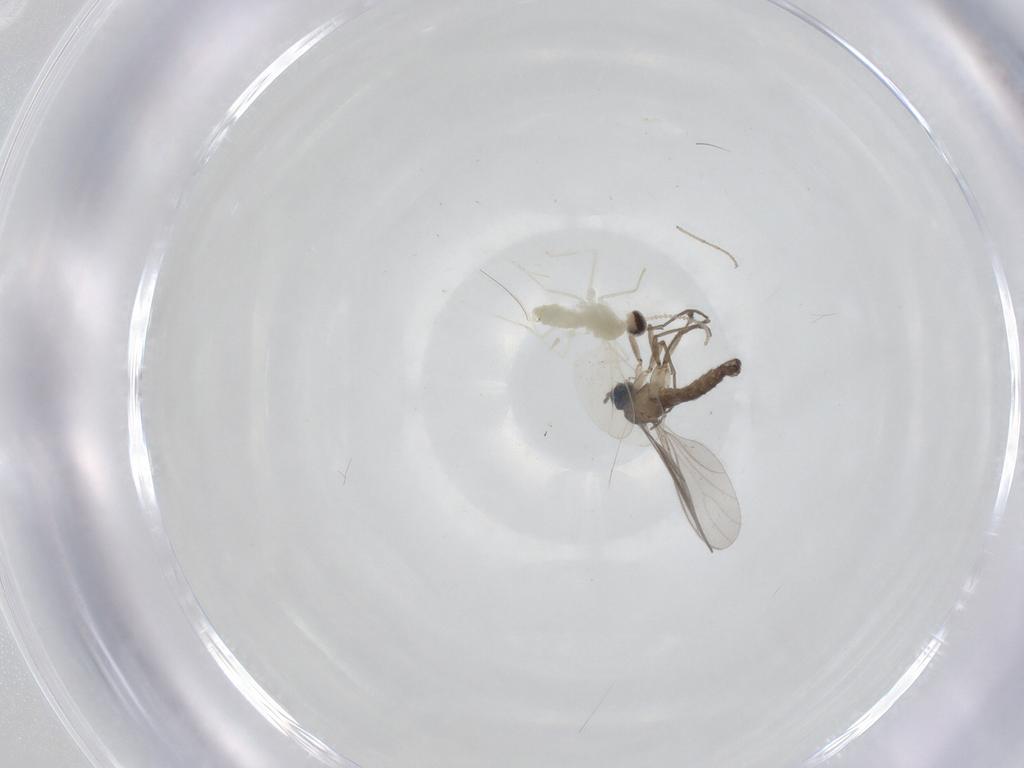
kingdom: Animalia
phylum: Arthropoda
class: Insecta
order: Diptera
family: Sciaridae
